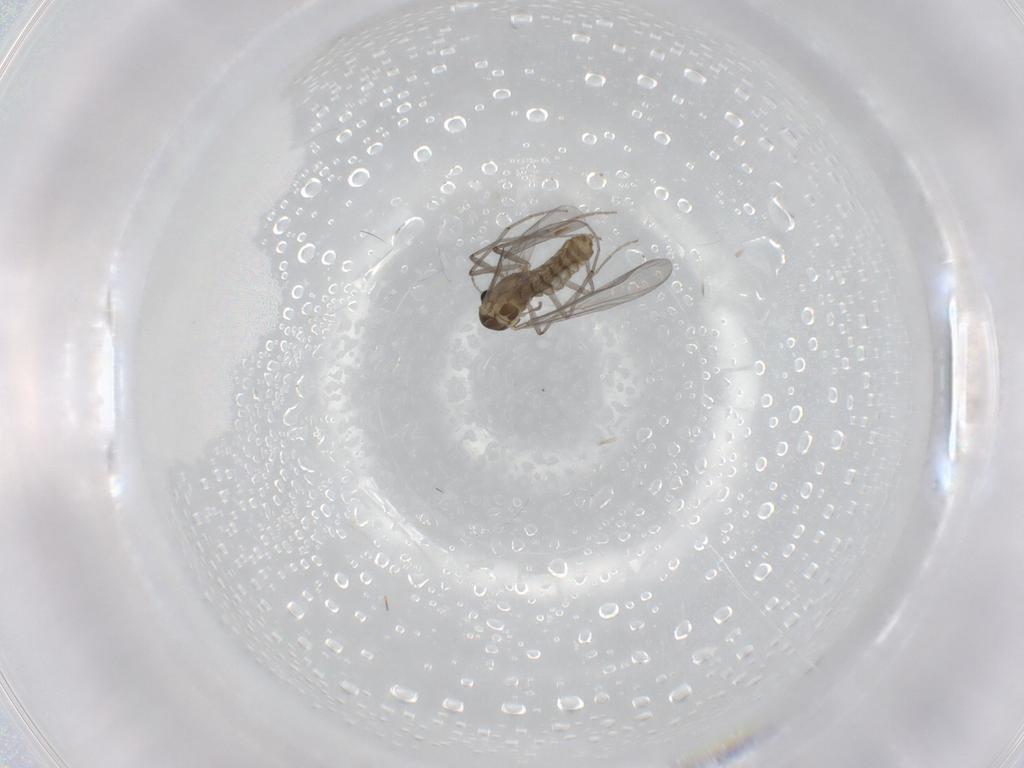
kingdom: Animalia
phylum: Arthropoda
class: Insecta
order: Diptera
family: Chironomidae
